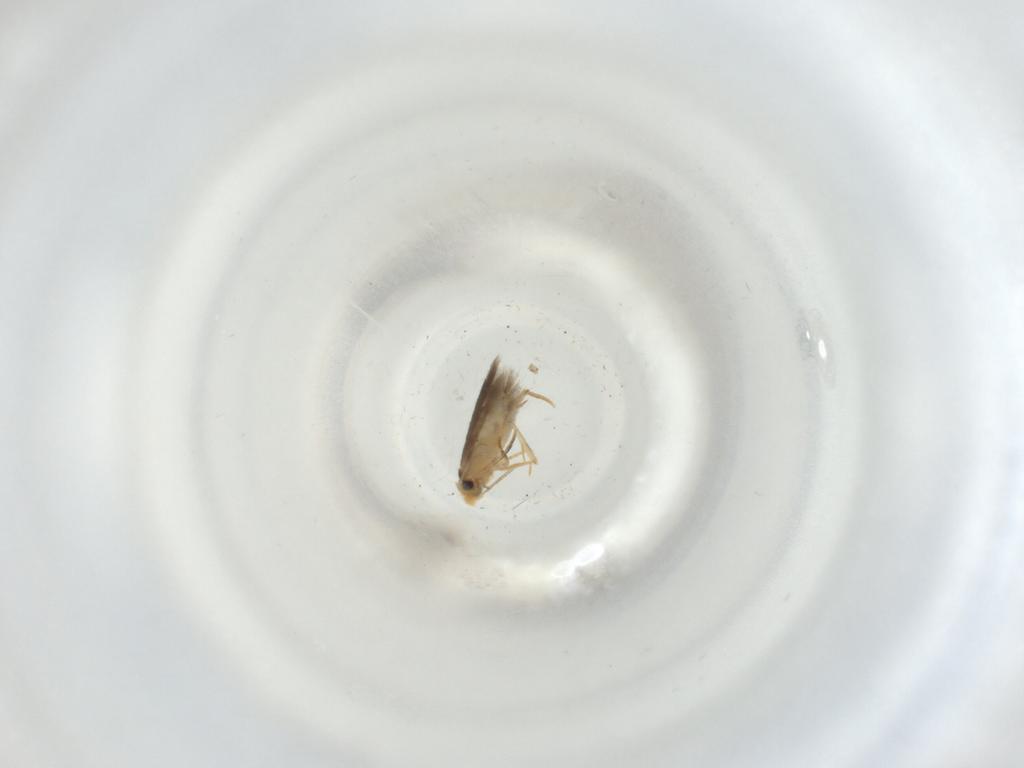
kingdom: Animalia
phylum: Arthropoda
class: Insecta
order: Lepidoptera
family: Nepticulidae
